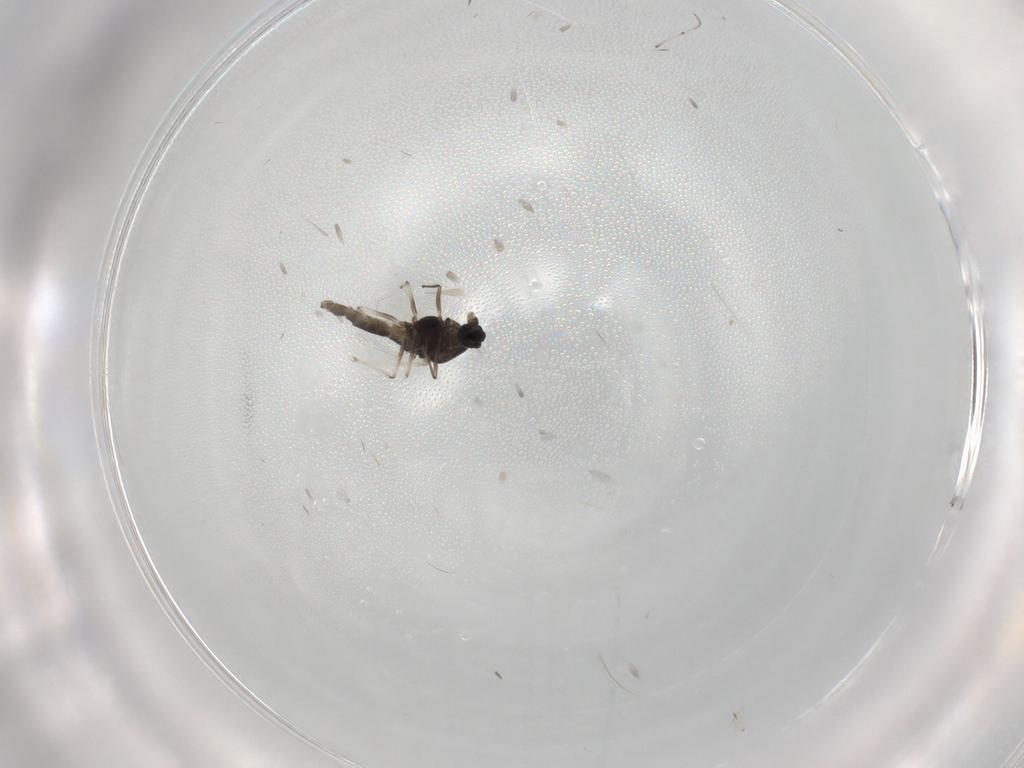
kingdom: Animalia
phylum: Arthropoda
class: Insecta
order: Diptera
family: Chironomidae
